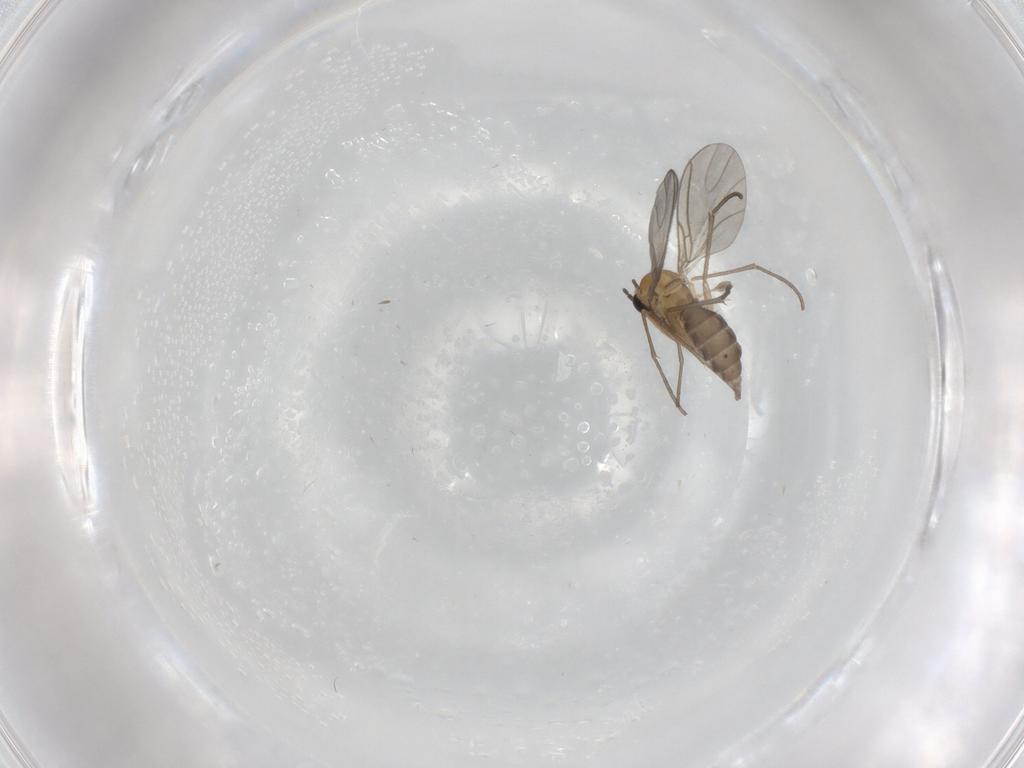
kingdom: Animalia
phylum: Arthropoda
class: Insecta
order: Diptera
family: Sciaridae
